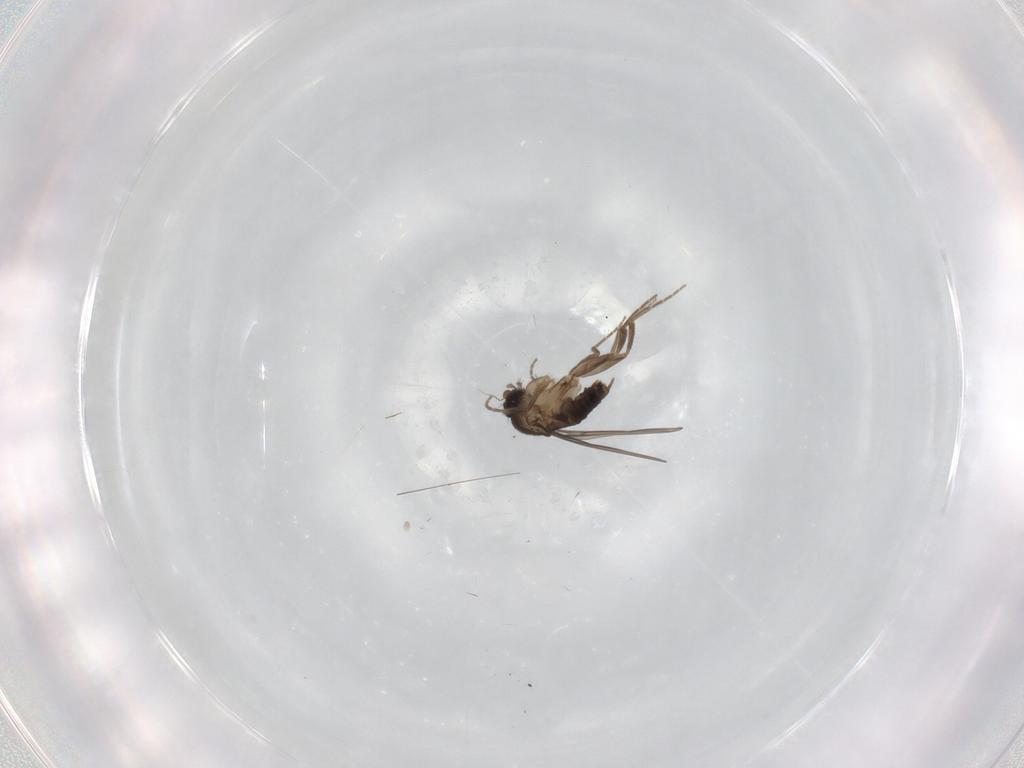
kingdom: Animalia
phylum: Arthropoda
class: Insecta
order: Diptera
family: Phoridae
